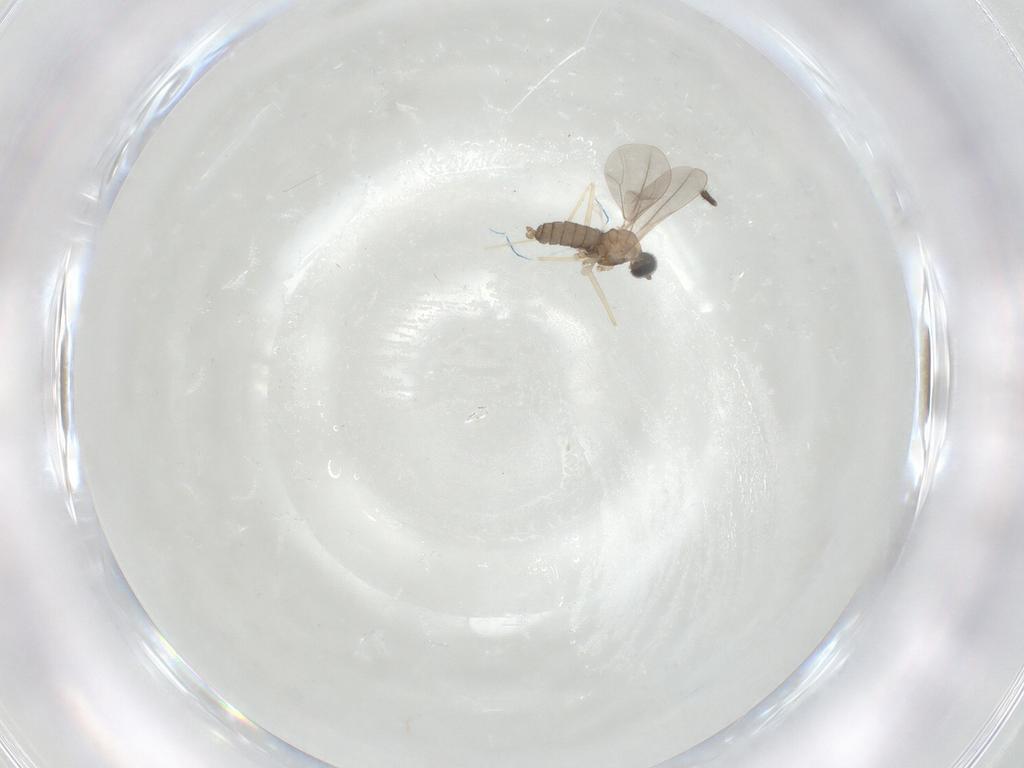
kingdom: Animalia
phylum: Arthropoda
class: Insecta
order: Diptera
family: Cecidomyiidae
